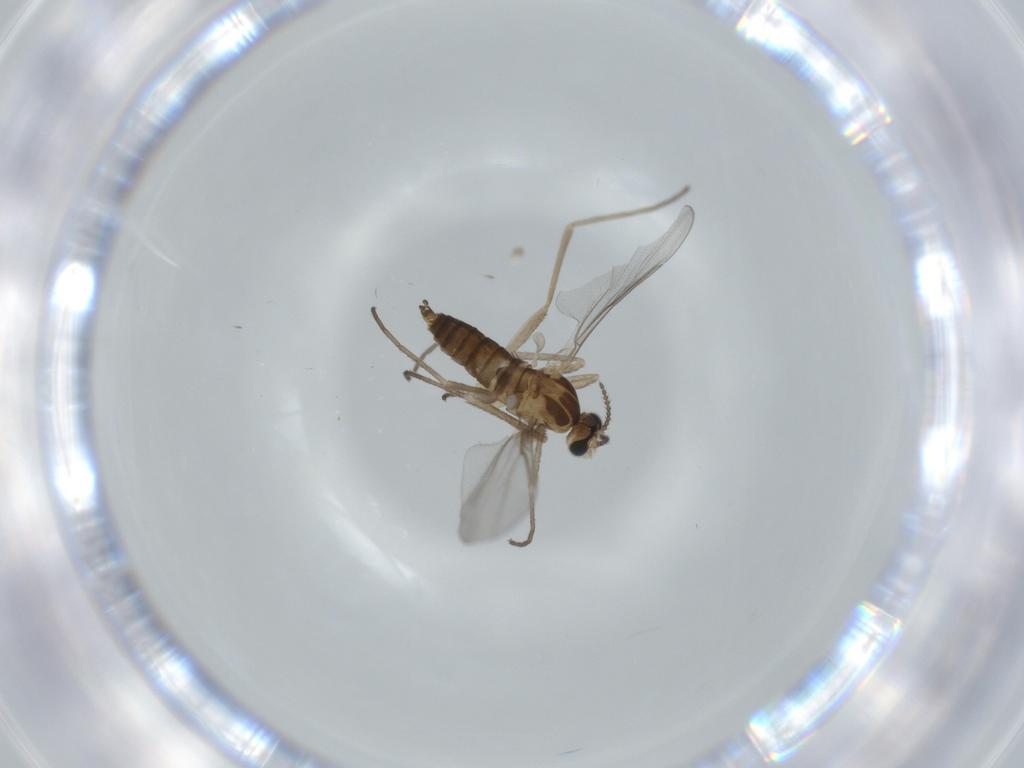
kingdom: Animalia
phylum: Arthropoda
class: Insecta
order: Diptera
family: Cecidomyiidae
